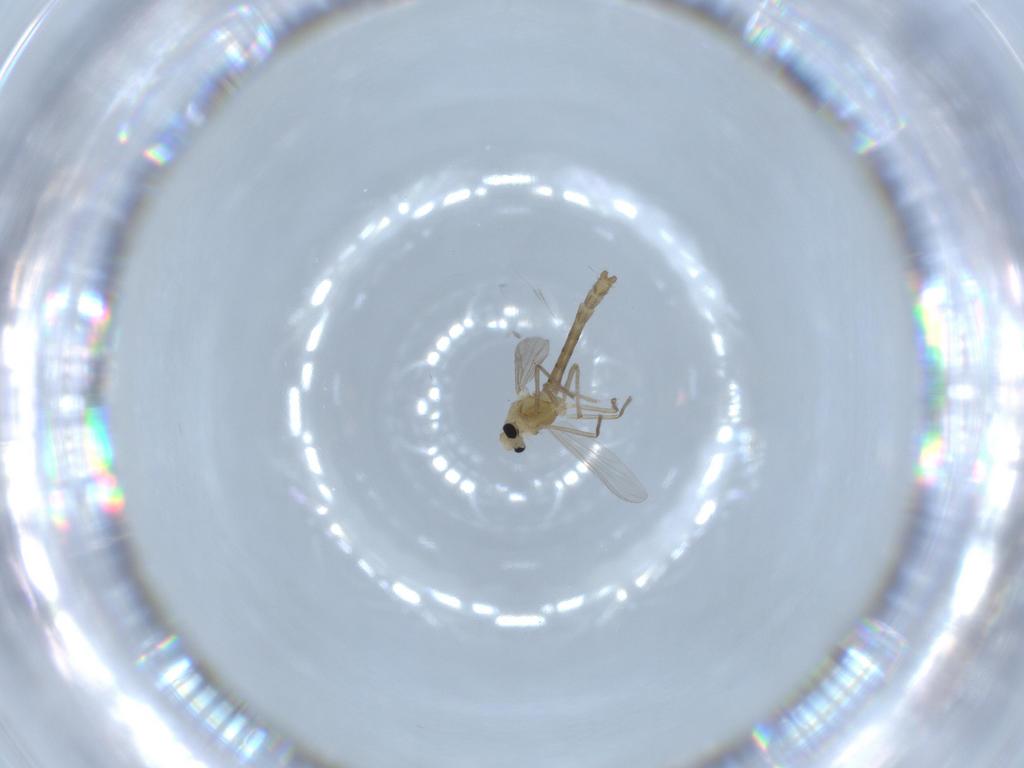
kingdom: Animalia
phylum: Arthropoda
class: Insecta
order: Diptera
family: Chironomidae
